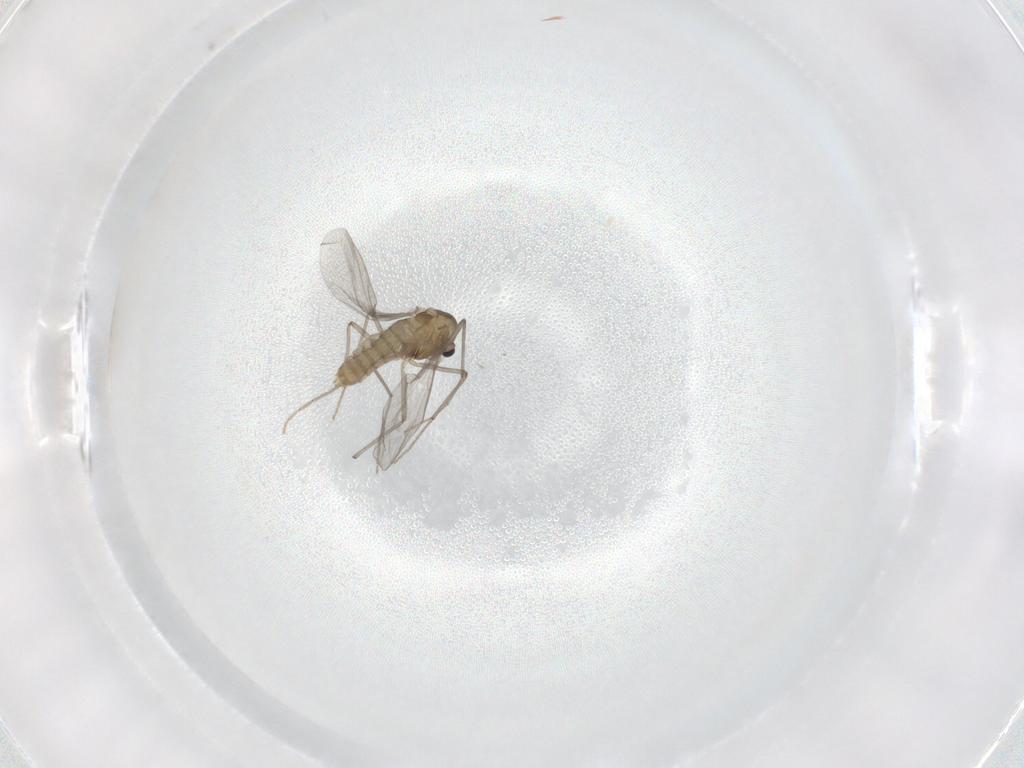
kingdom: Animalia
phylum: Arthropoda
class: Insecta
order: Diptera
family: Chironomidae
